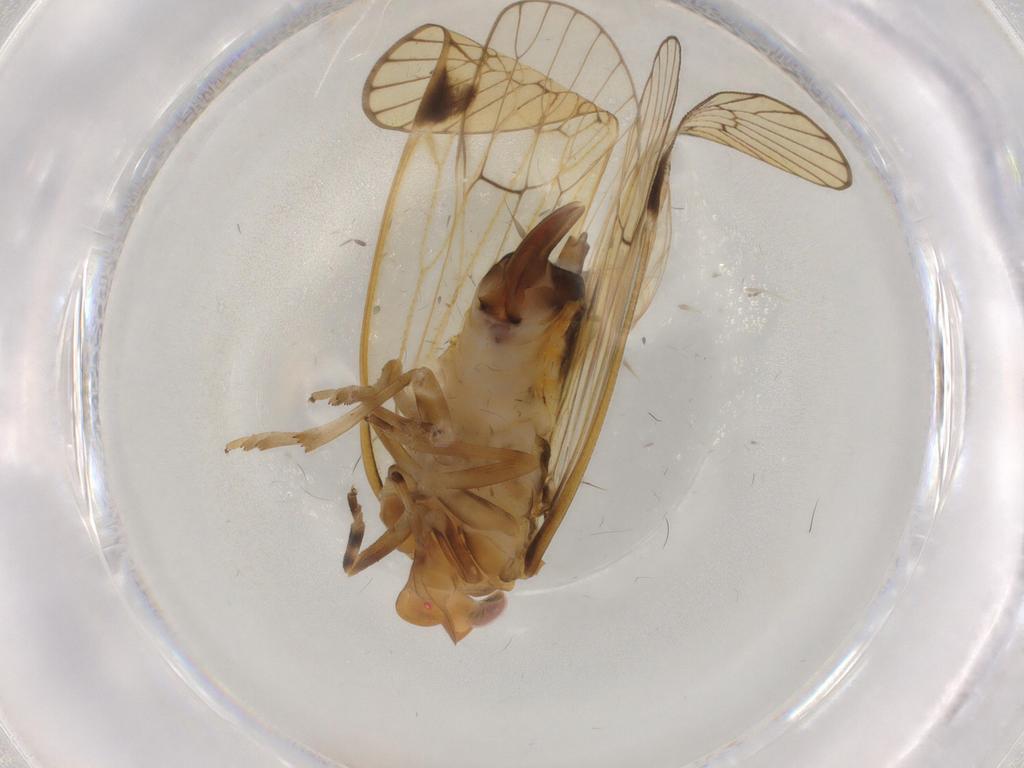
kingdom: Animalia
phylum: Arthropoda
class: Insecta
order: Hemiptera
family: Cixiidae
